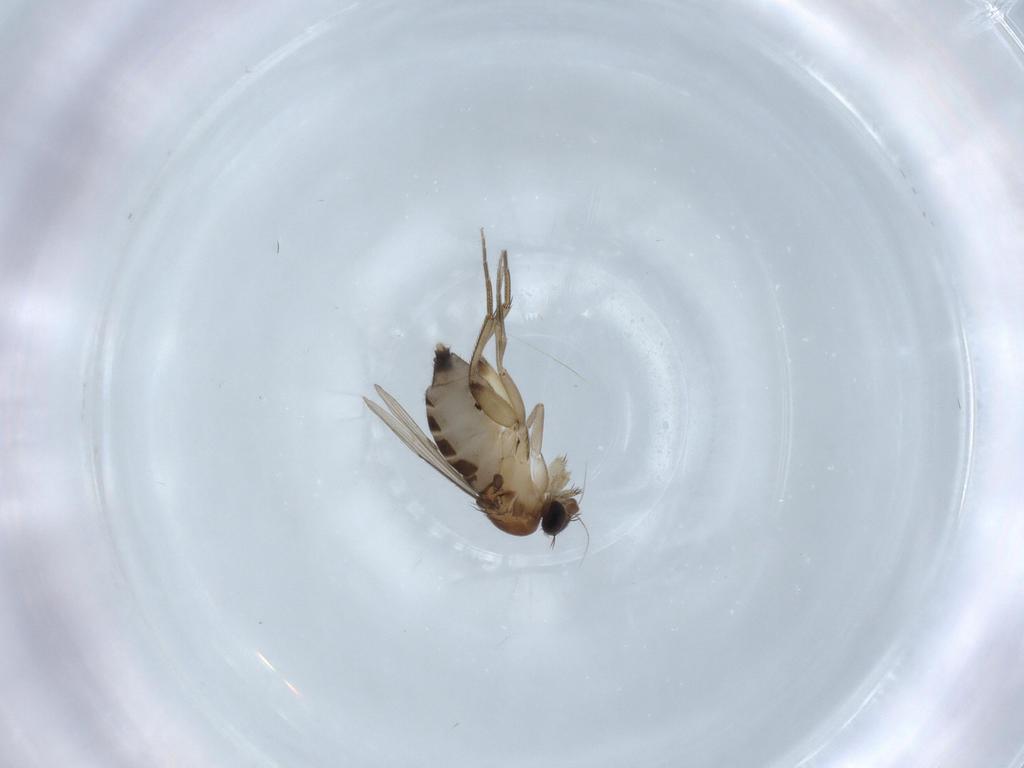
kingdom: Animalia
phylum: Arthropoda
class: Insecta
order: Diptera
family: Phoridae
